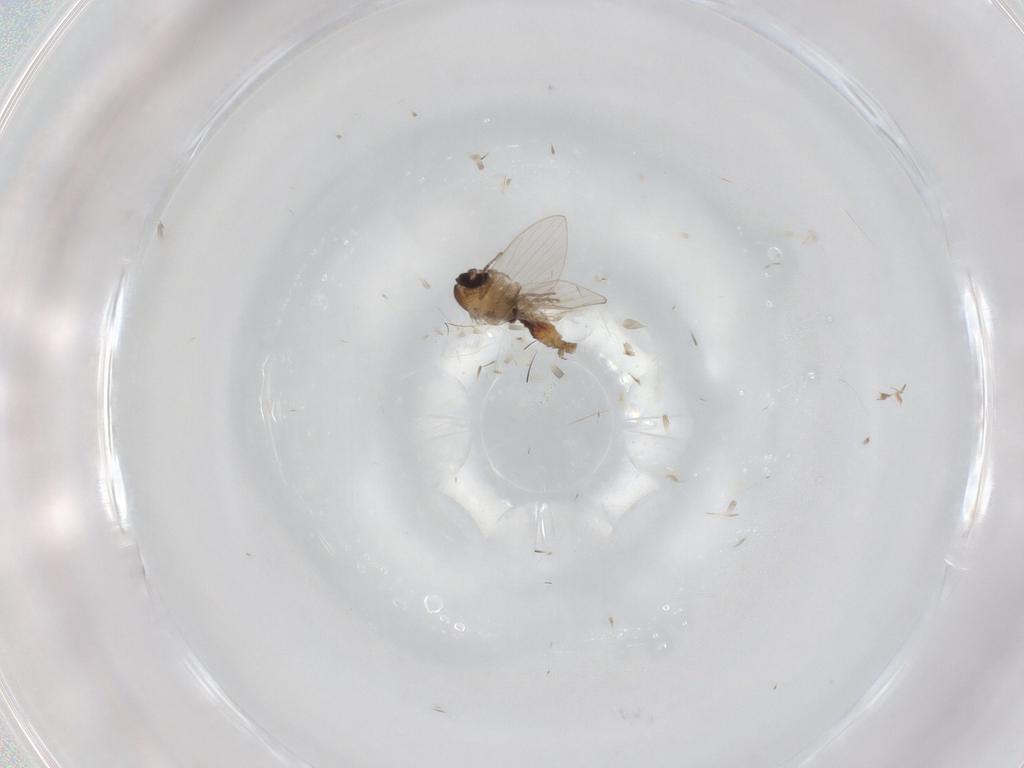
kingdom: Animalia
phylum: Arthropoda
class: Insecta
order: Diptera
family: Psychodidae
